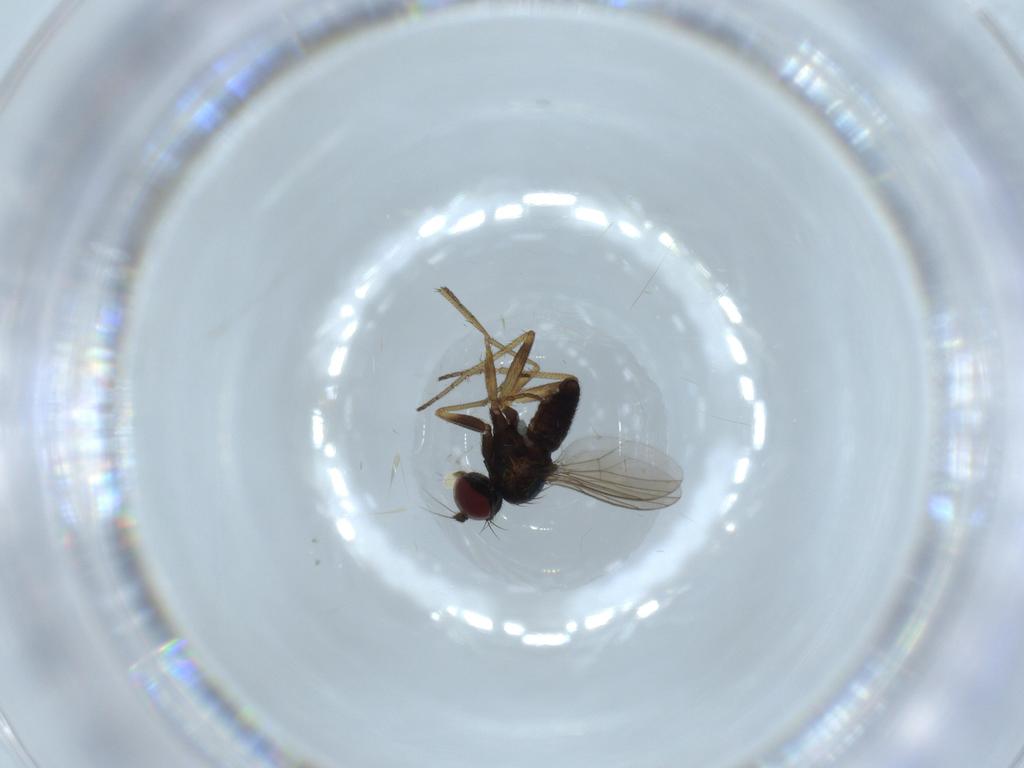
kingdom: Animalia
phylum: Arthropoda
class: Insecta
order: Diptera
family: Dolichopodidae
